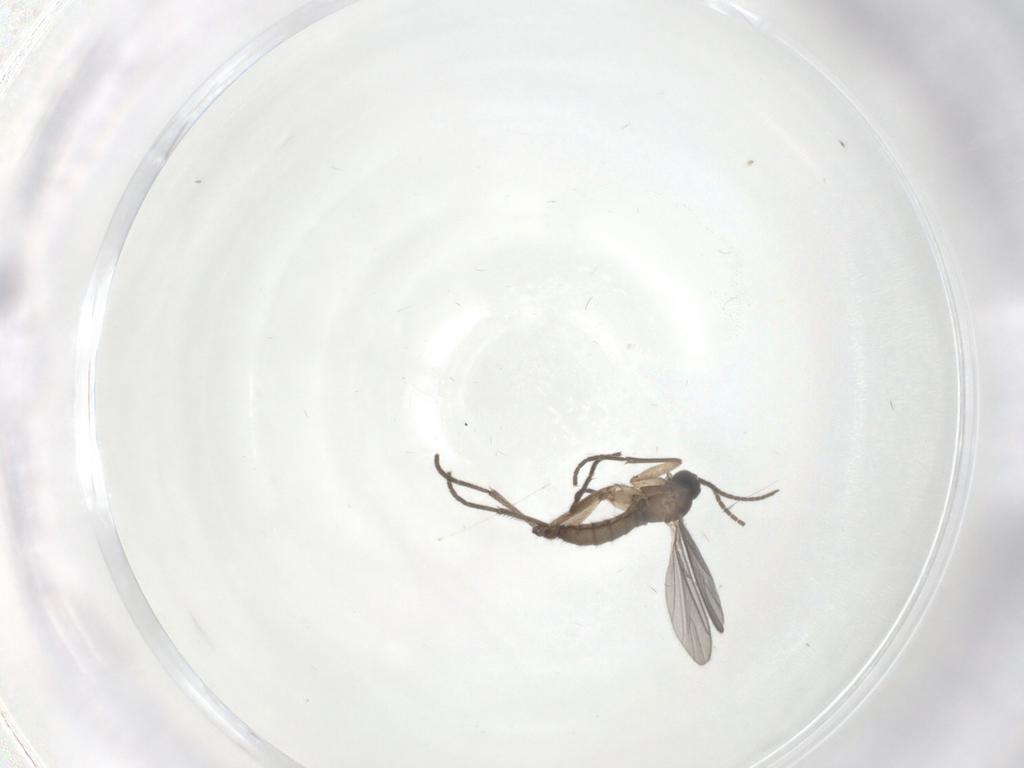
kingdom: Animalia
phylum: Arthropoda
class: Insecta
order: Diptera
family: Sciaridae
